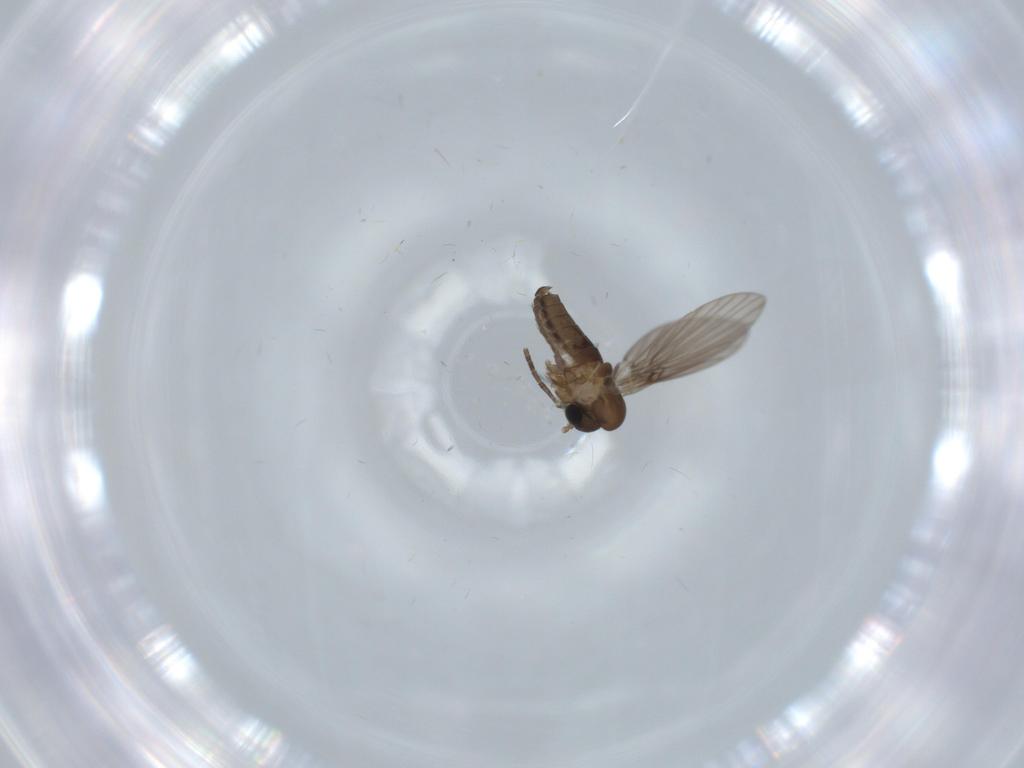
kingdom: Animalia
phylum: Arthropoda
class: Insecta
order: Diptera
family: Psychodidae
